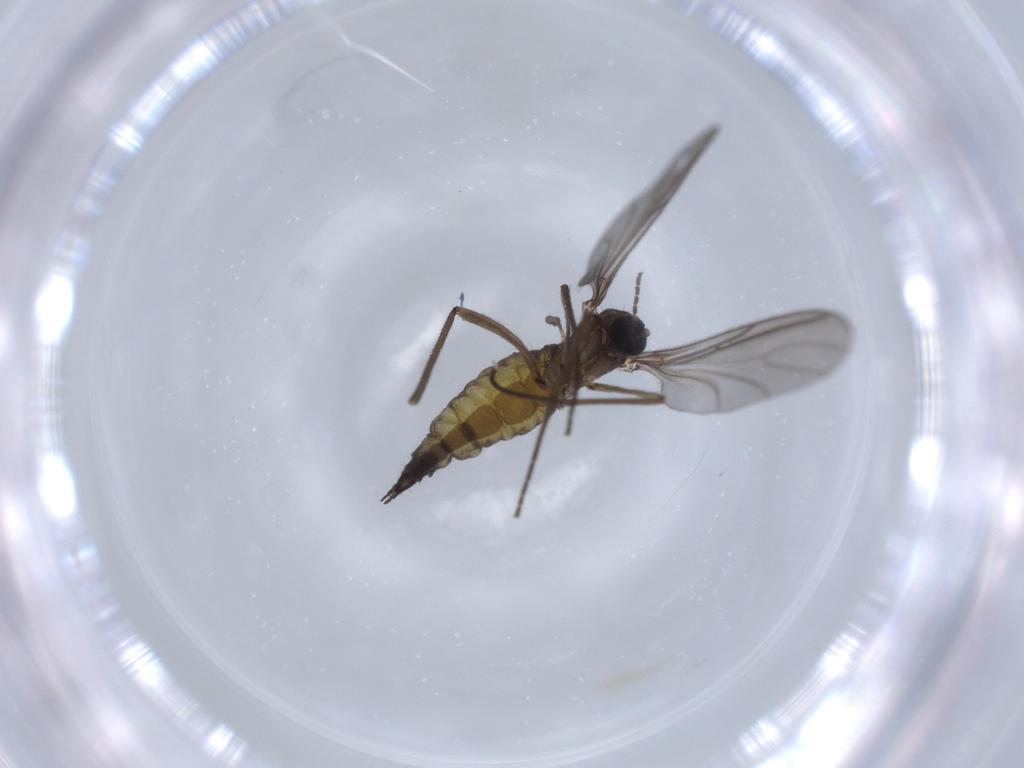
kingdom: Animalia
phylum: Arthropoda
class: Insecta
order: Diptera
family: Sciaridae
